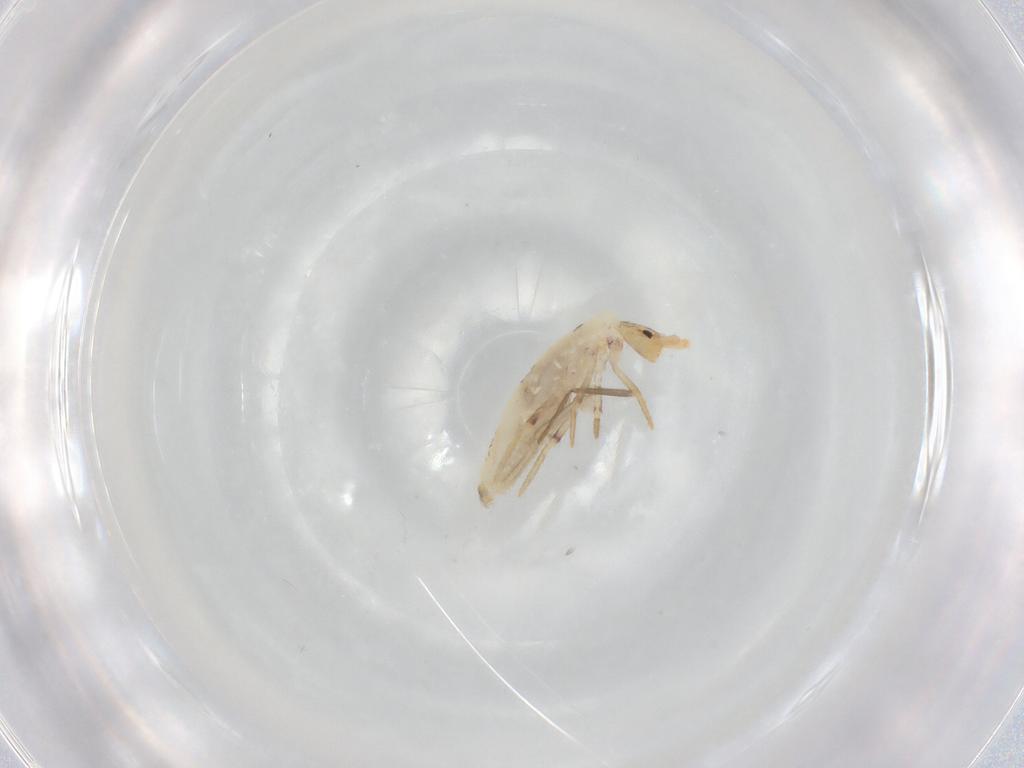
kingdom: Animalia
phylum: Arthropoda
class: Collembola
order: Poduromorpha
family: Hypogastruridae
